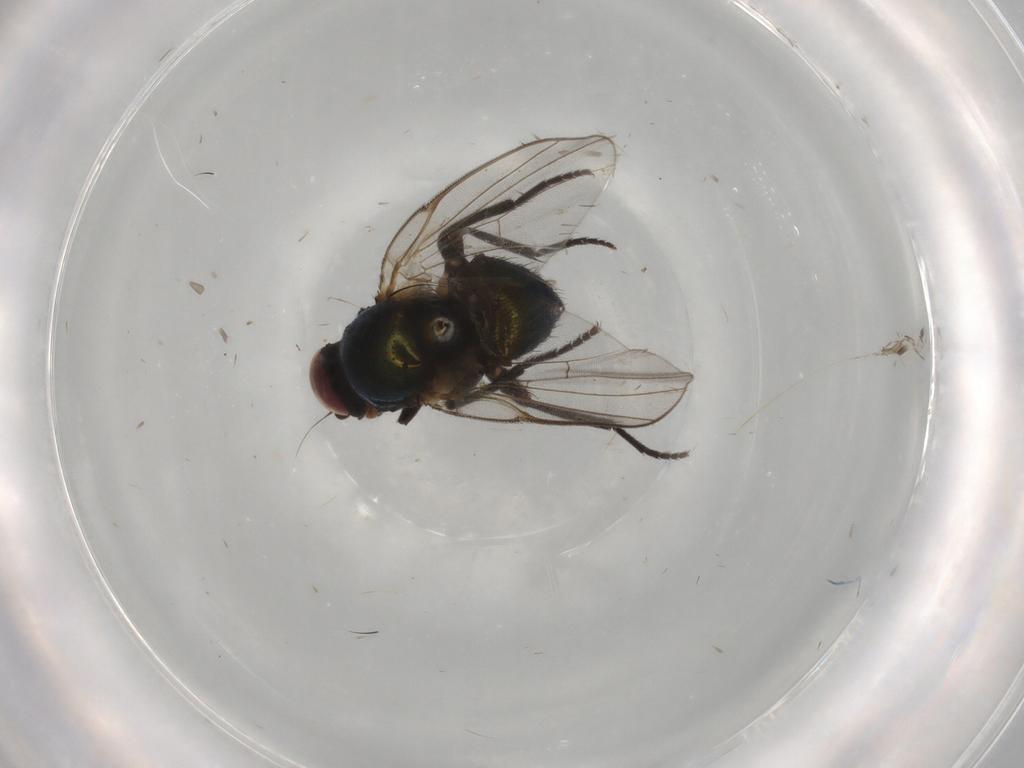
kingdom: Animalia
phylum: Arthropoda
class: Insecta
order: Diptera
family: Agromyzidae
